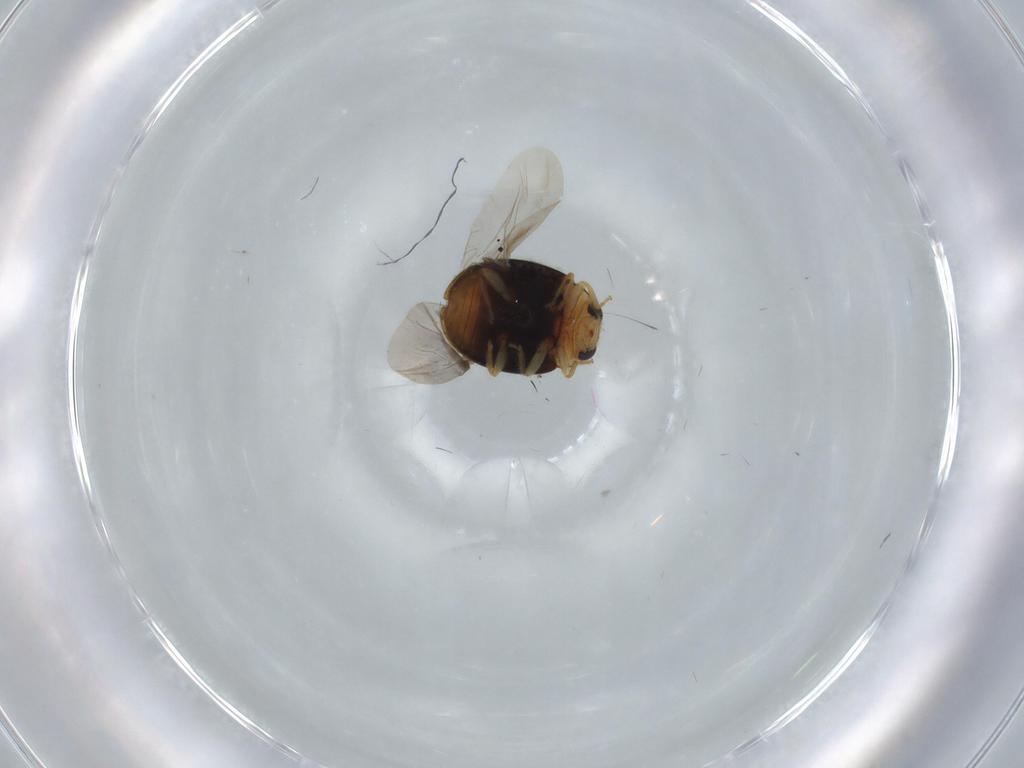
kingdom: Animalia
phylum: Arthropoda
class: Insecta
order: Coleoptera
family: Coccinellidae
